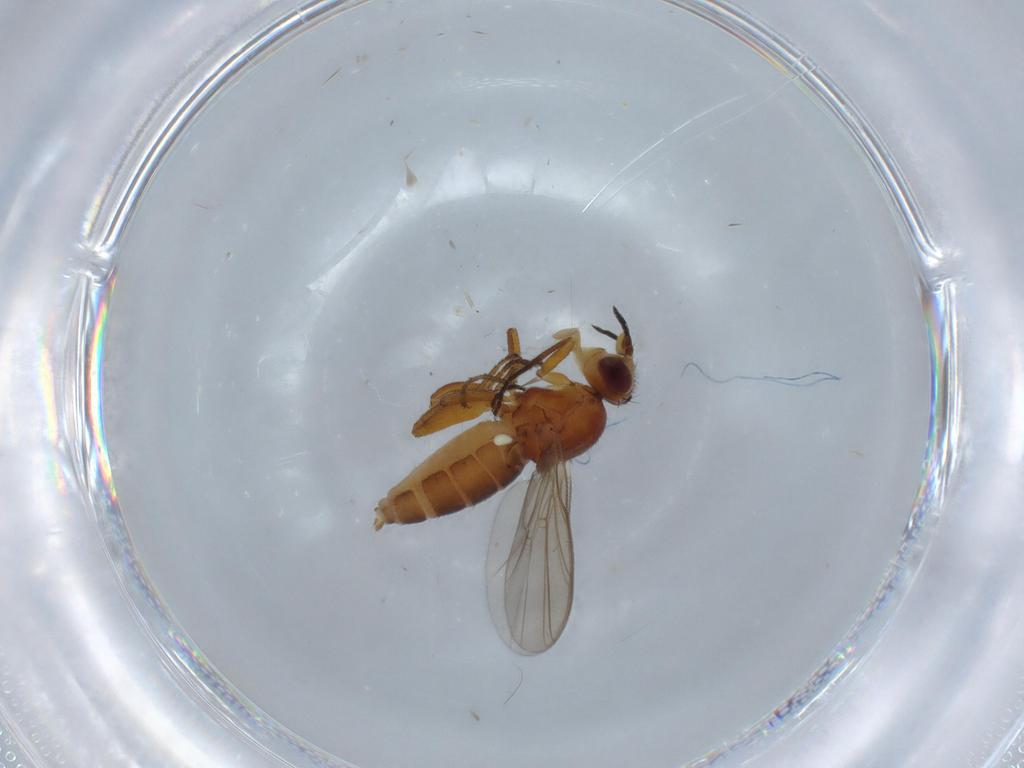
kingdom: Animalia
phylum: Arthropoda
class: Insecta
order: Diptera
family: Chloropidae
